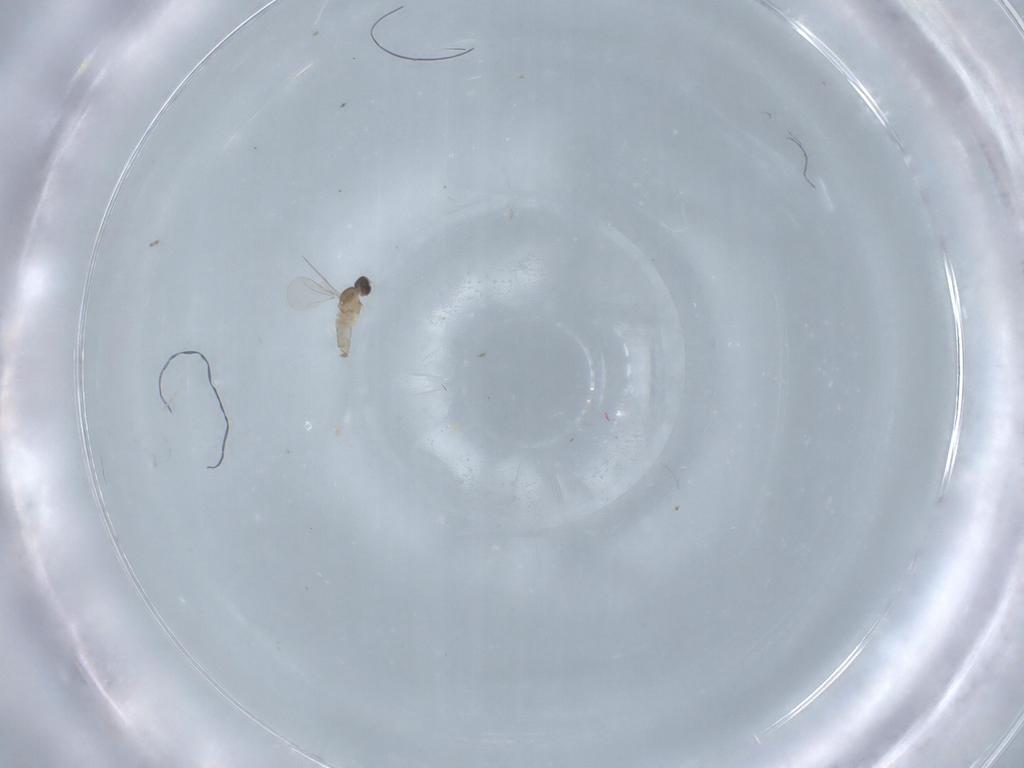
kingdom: Animalia
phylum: Arthropoda
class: Insecta
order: Diptera
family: Cecidomyiidae
